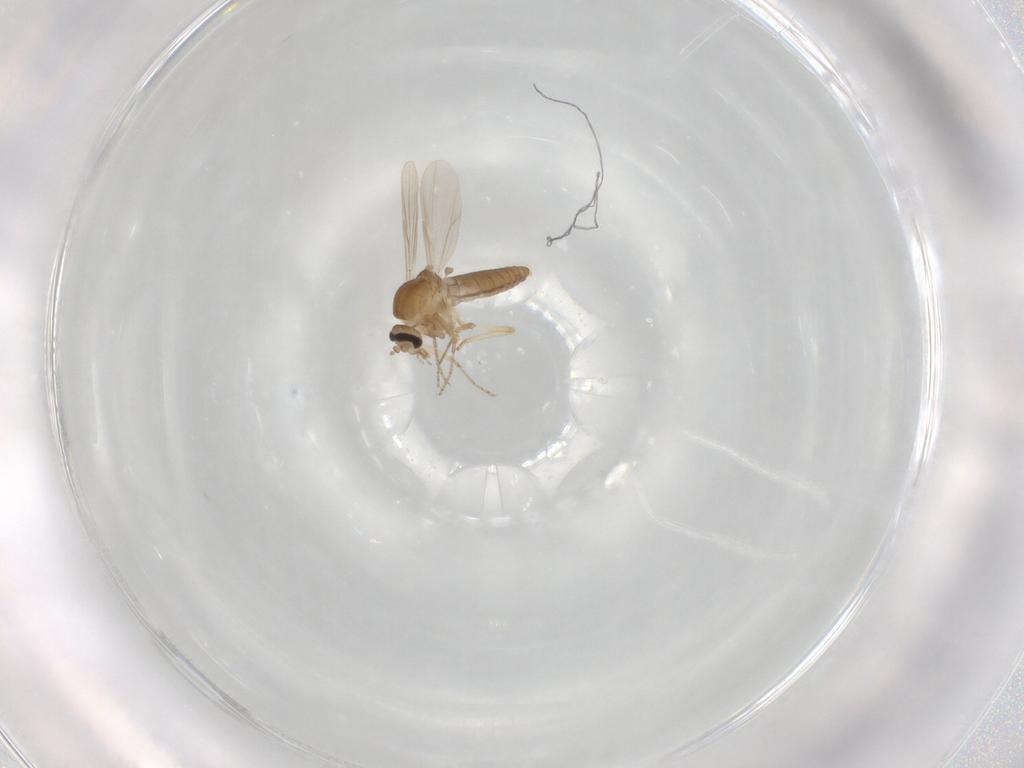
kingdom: Animalia
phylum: Arthropoda
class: Insecta
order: Diptera
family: Ceratopogonidae
